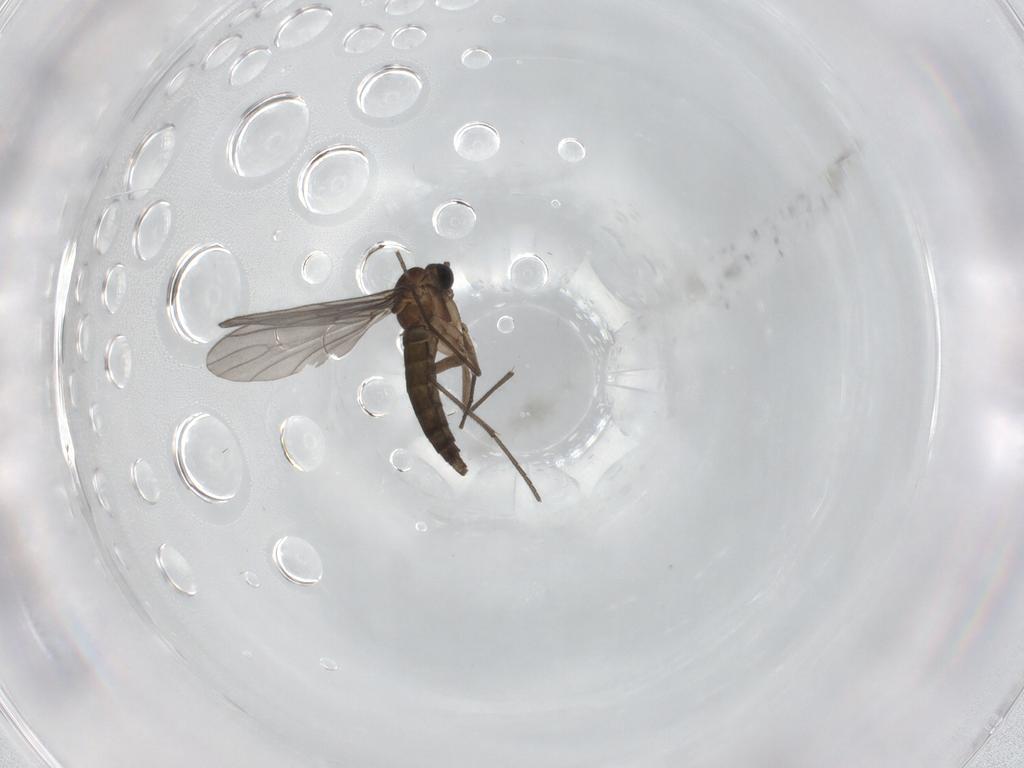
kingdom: Animalia
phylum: Arthropoda
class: Insecta
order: Diptera
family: Sciaridae
